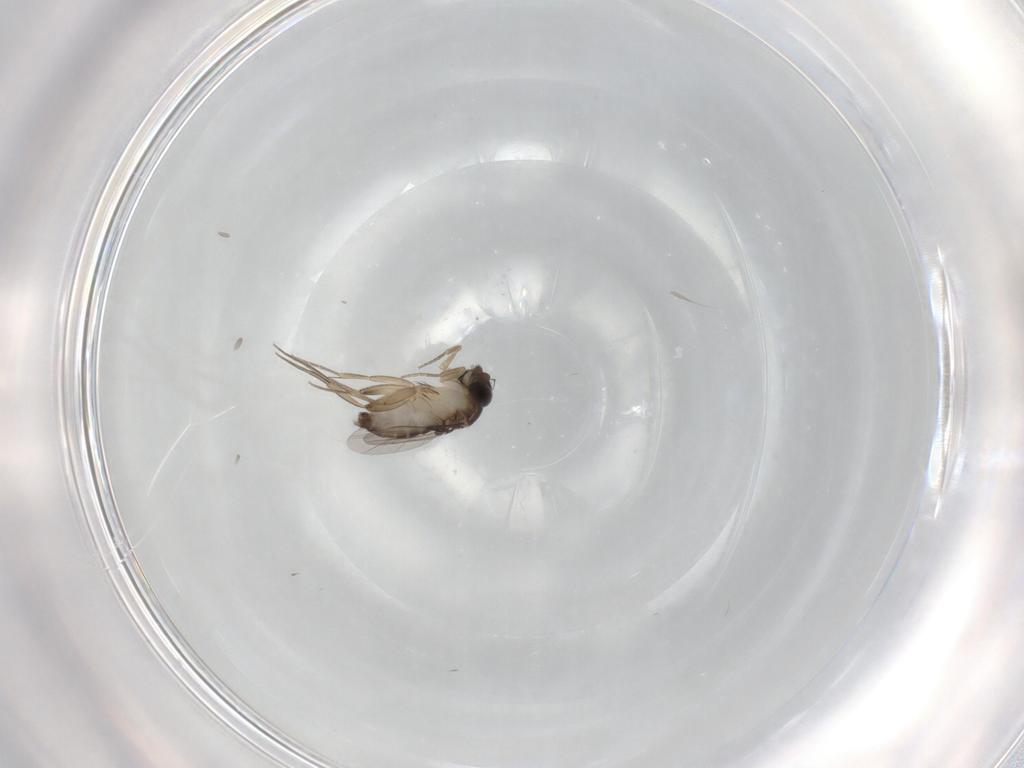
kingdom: Animalia
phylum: Arthropoda
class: Insecta
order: Diptera
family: Phoridae
